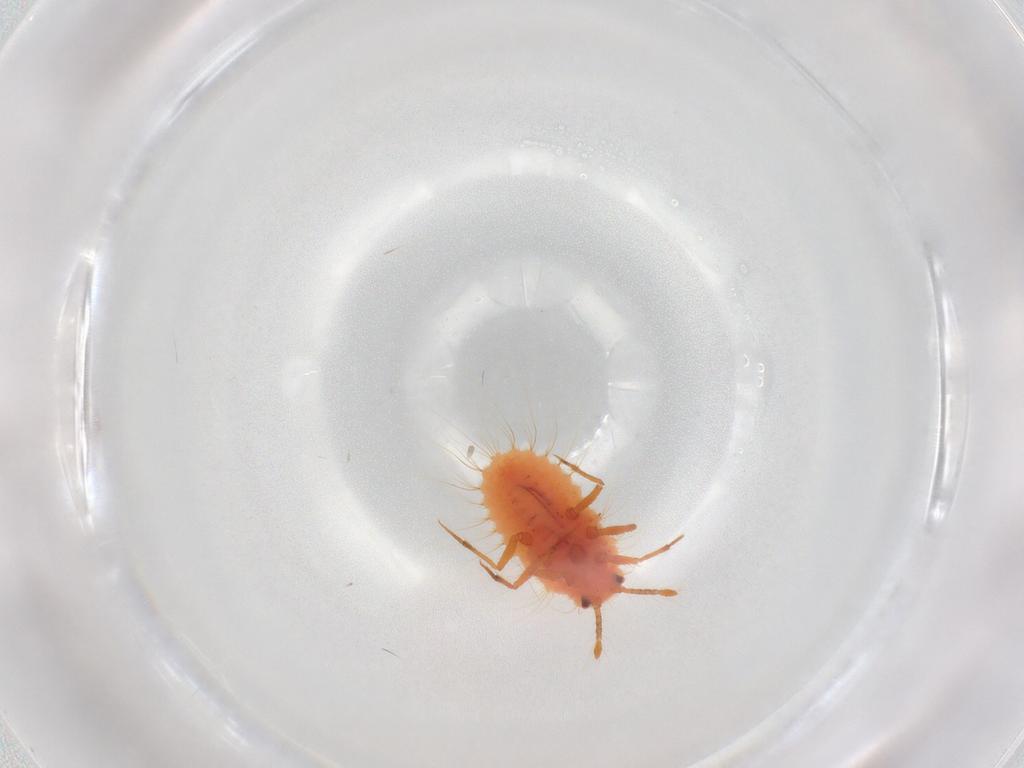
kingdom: Animalia
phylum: Arthropoda
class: Insecta
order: Hemiptera
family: Coccoidea_incertae_sedis
